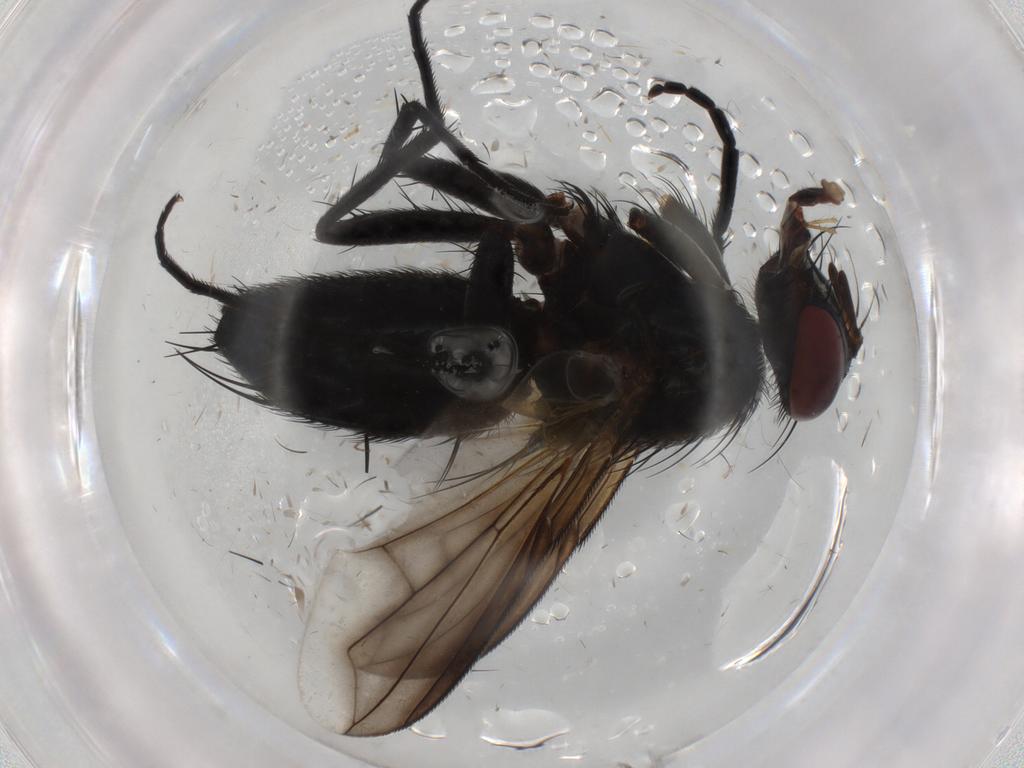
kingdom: Animalia
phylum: Arthropoda
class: Insecta
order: Diptera
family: Tachinidae
